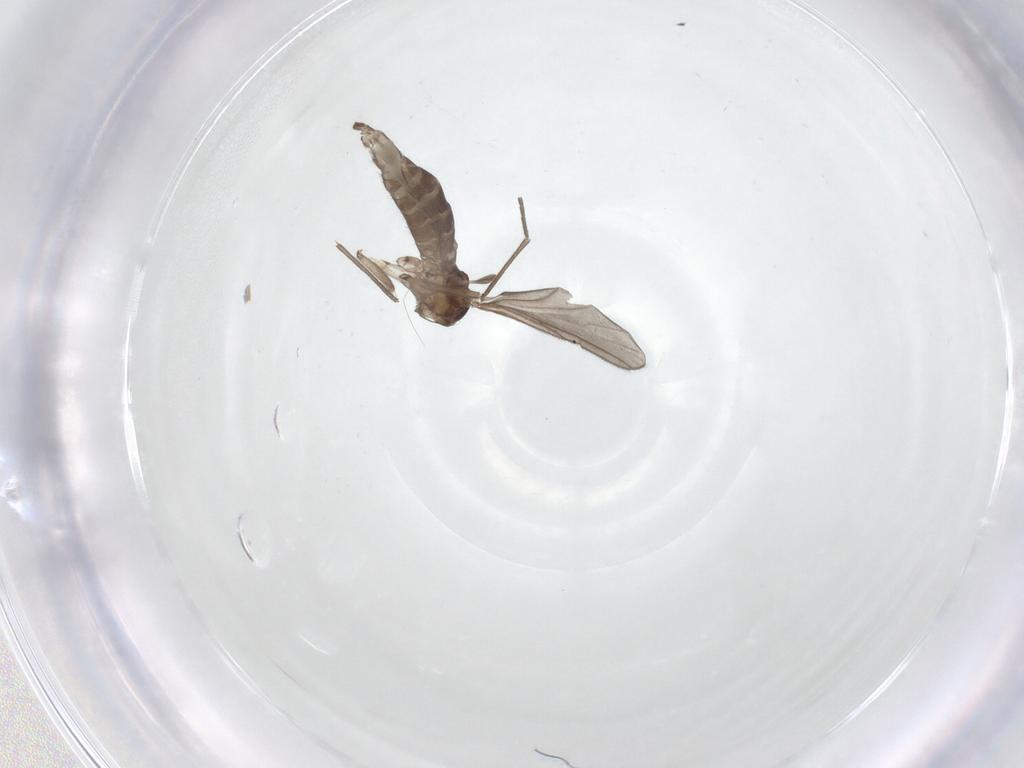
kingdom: Animalia
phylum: Arthropoda
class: Insecta
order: Diptera
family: Sciaridae
